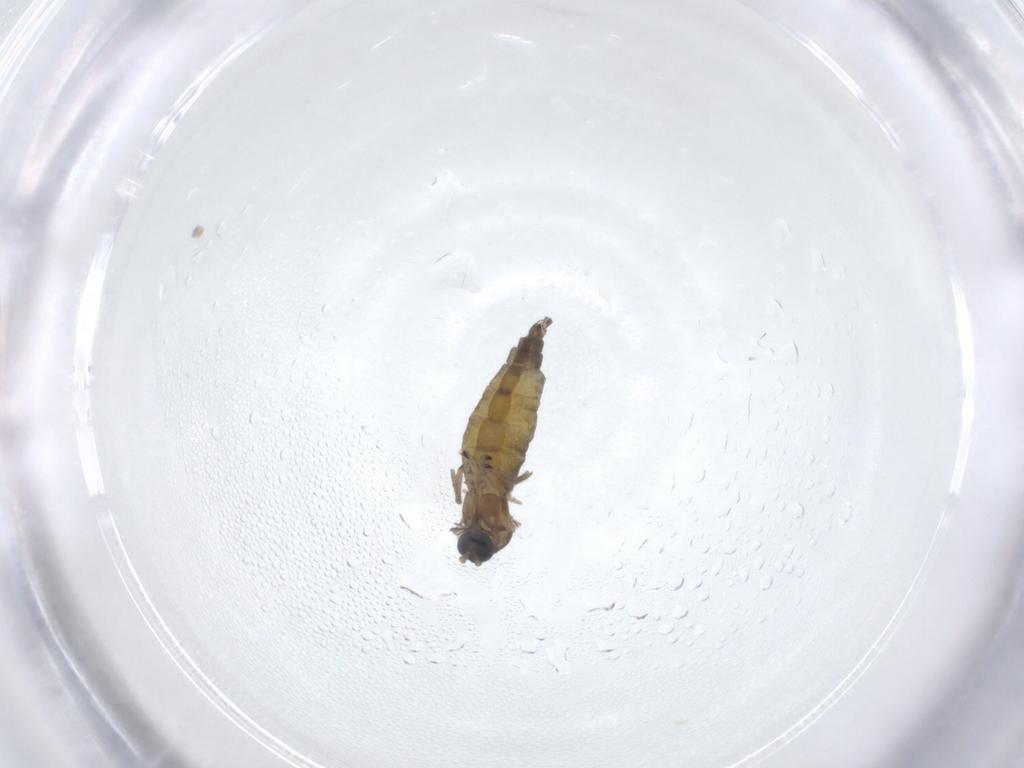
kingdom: Animalia
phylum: Arthropoda
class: Insecta
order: Diptera
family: Sciaridae
